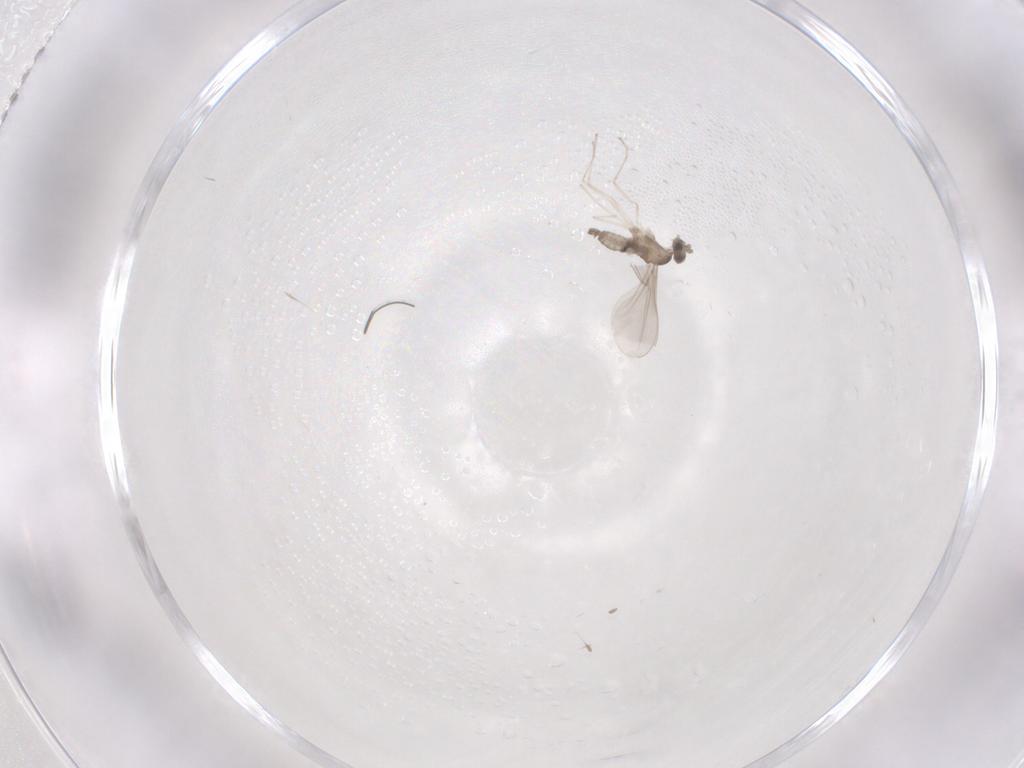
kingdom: Animalia
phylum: Arthropoda
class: Insecta
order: Diptera
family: Cecidomyiidae
